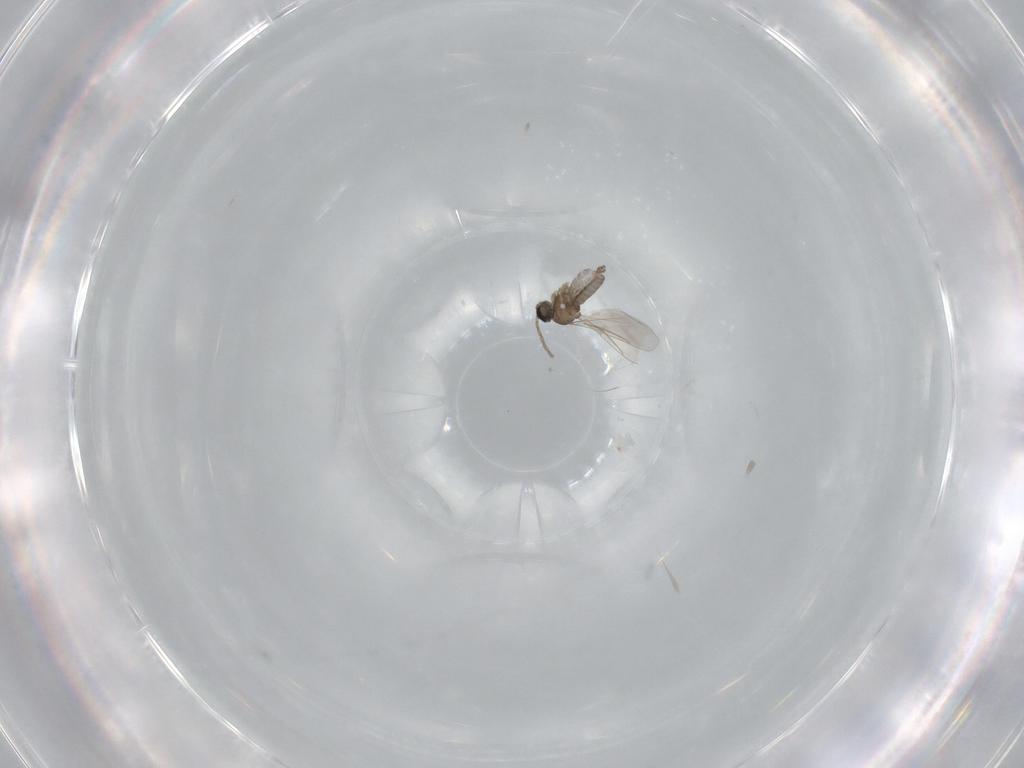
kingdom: Animalia
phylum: Arthropoda
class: Insecta
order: Diptera
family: Cecidomyiidae
